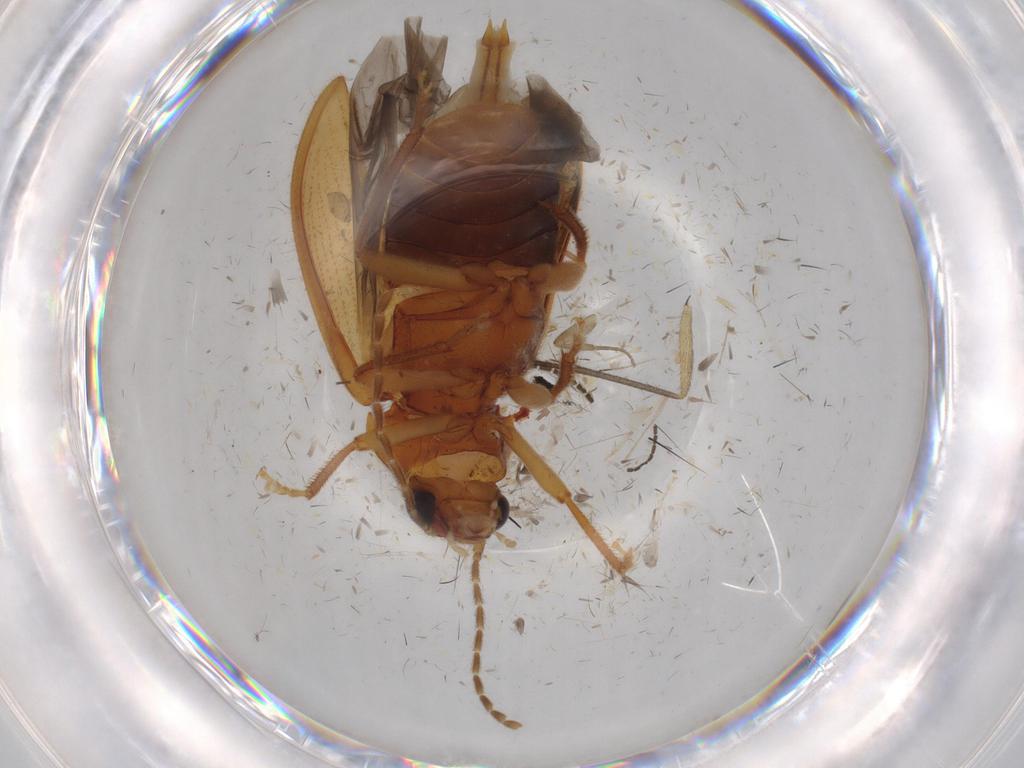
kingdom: Animalia
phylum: Arthropoda
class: Insecta
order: Coleoptera
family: Ptilodactylidae
